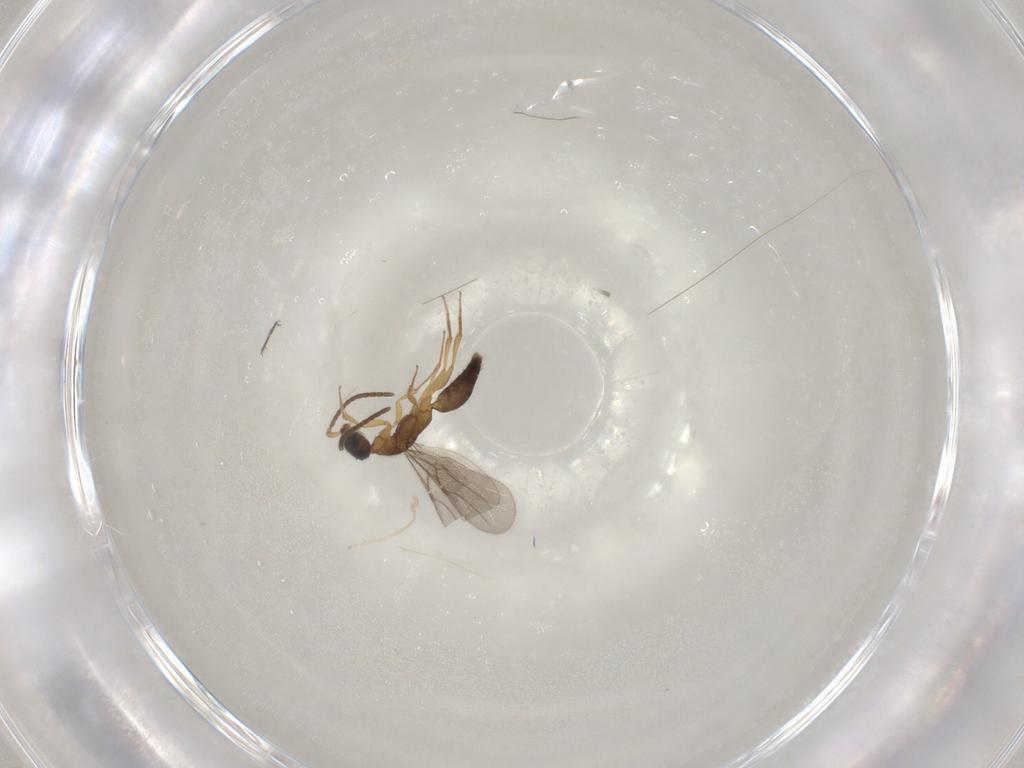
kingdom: Animalia
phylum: Arthropoda
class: Insecta
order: Hymenoptera
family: Bethylidae
